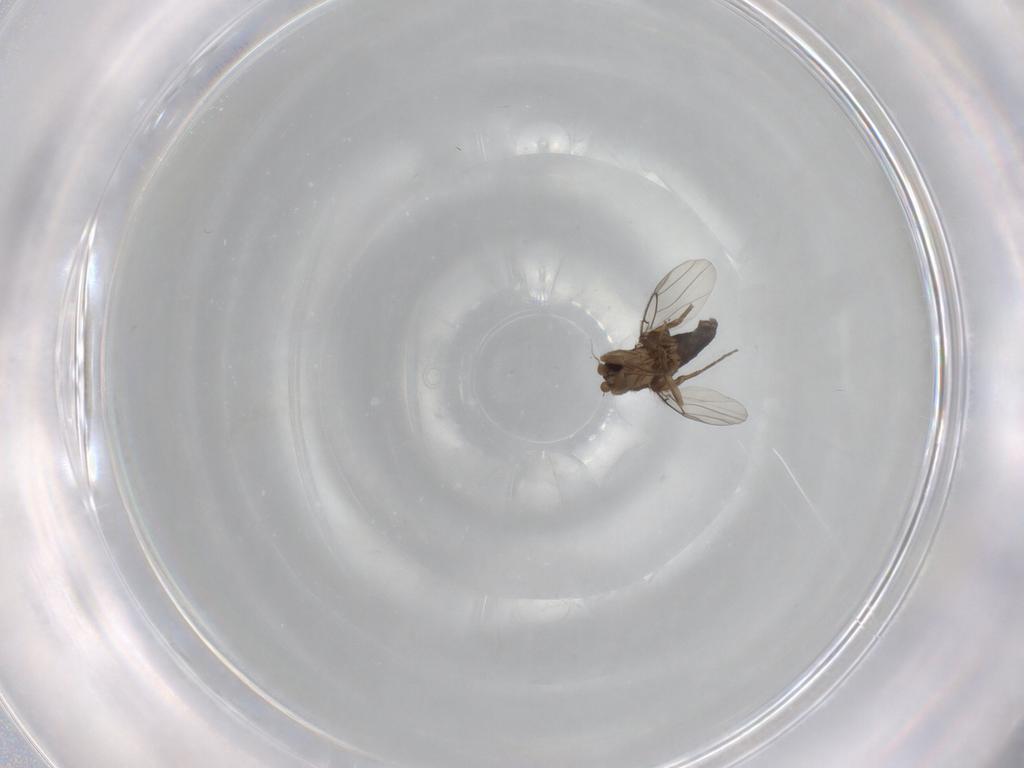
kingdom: Animalia
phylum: Arthropoda
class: Insecta
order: Diptera
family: Phoridae
